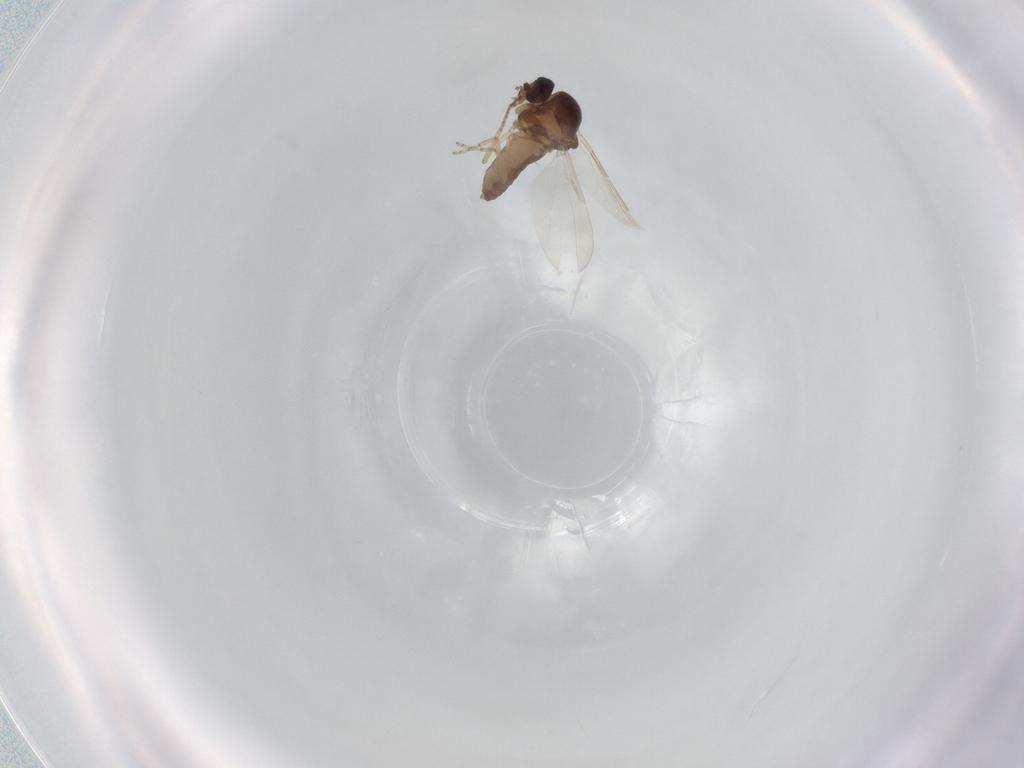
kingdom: Animalia
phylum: Arthropoda
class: Insecta
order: Diptera
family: Ceratopogonidae
